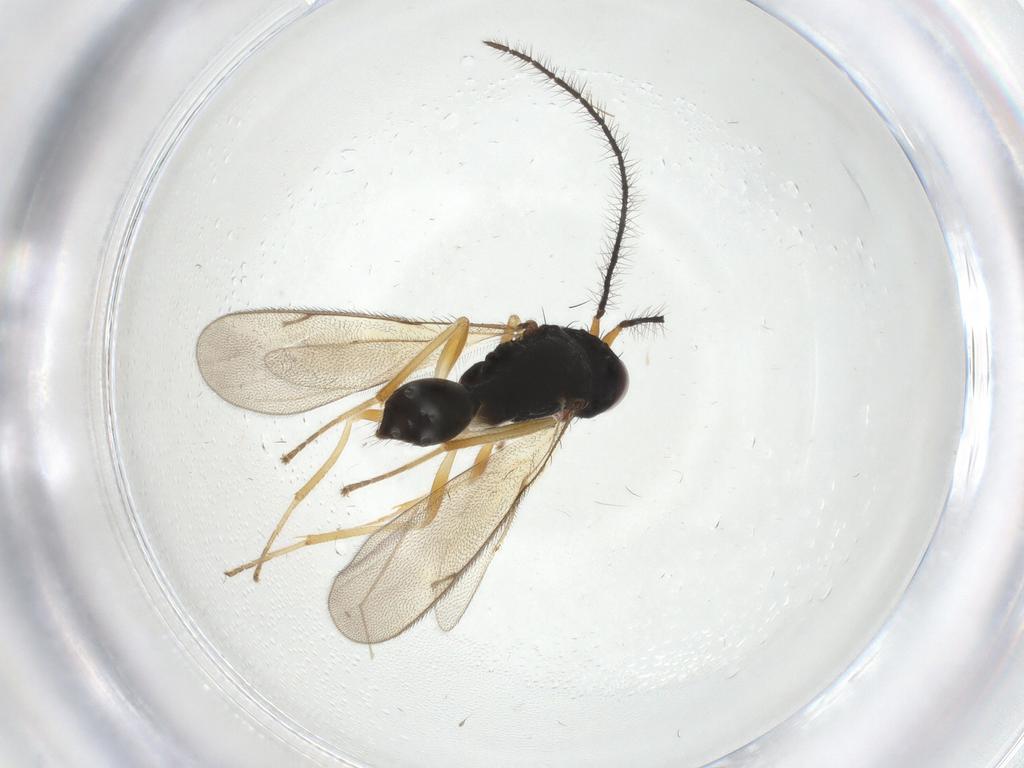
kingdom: Animalia
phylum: Arthropoda
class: Insecta
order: Hymenoptera
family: Diparidae
